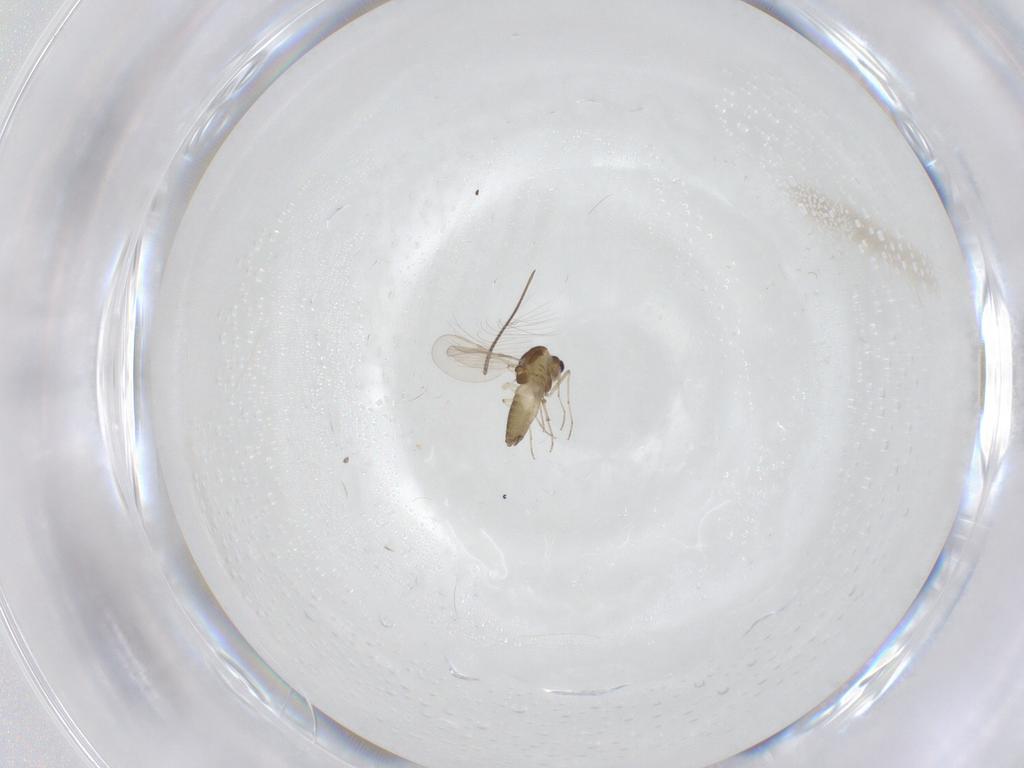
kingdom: Animalia
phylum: Arthropoda
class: Insecta
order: Diptera
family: Chironomidae
